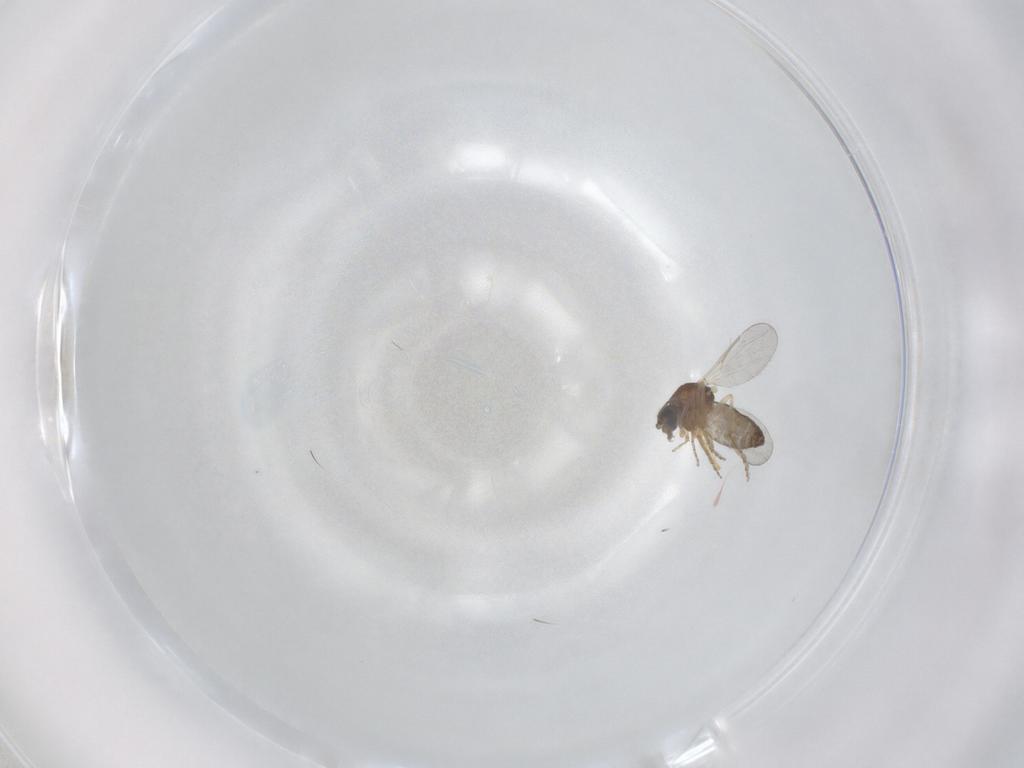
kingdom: Animalia
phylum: Arthropoda
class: Insecta
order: Diptera
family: Ceratopogonidae
